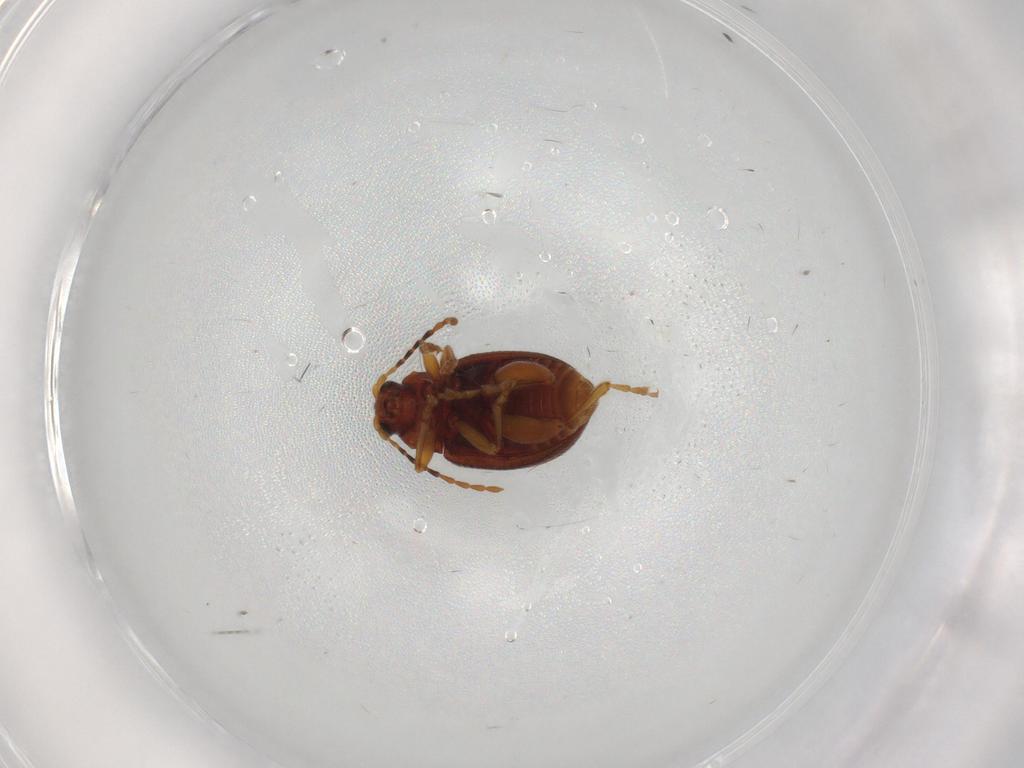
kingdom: Animalia
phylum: Arthropoda
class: Insecta
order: Coleoptera
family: Chrysomelidae
